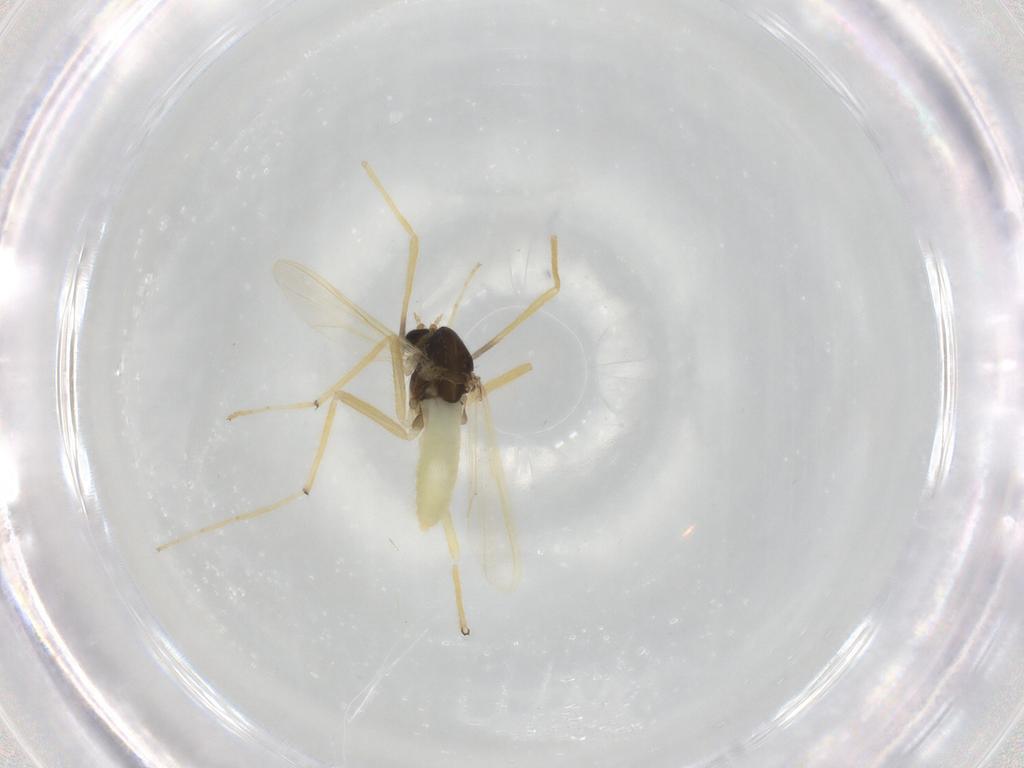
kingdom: Animalia
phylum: Arthropoda
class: Insecta
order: Diptera
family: Chironomidae
